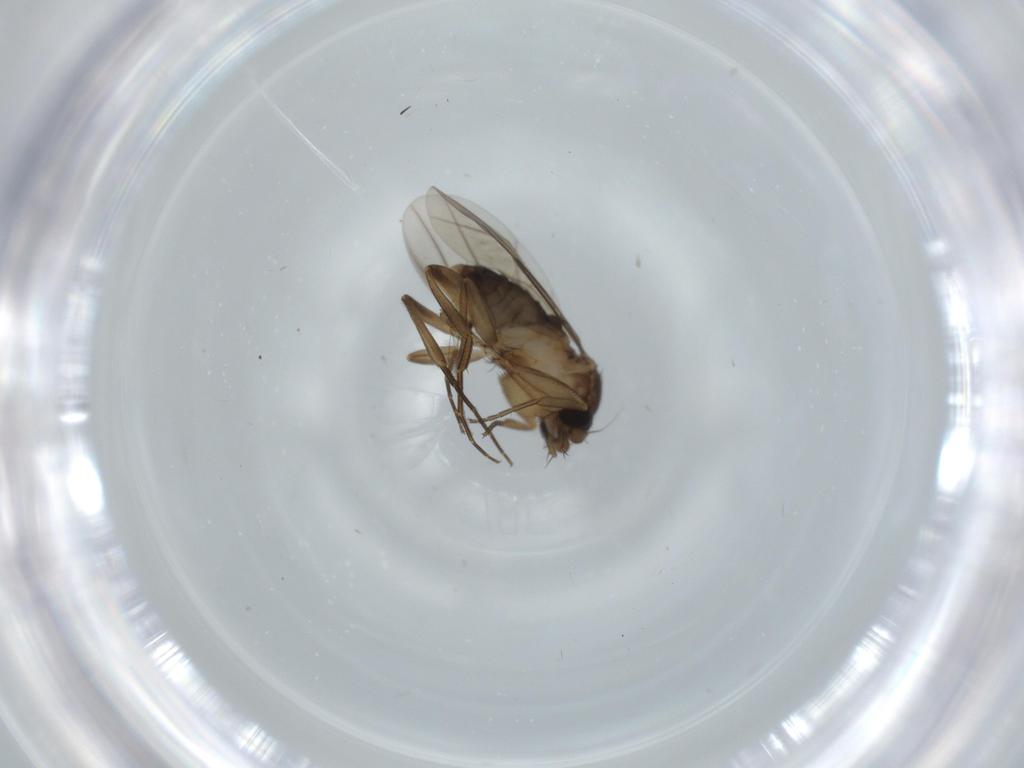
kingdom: Animalia
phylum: Arthropoda
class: Insecta
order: Diptera
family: Phoridae
